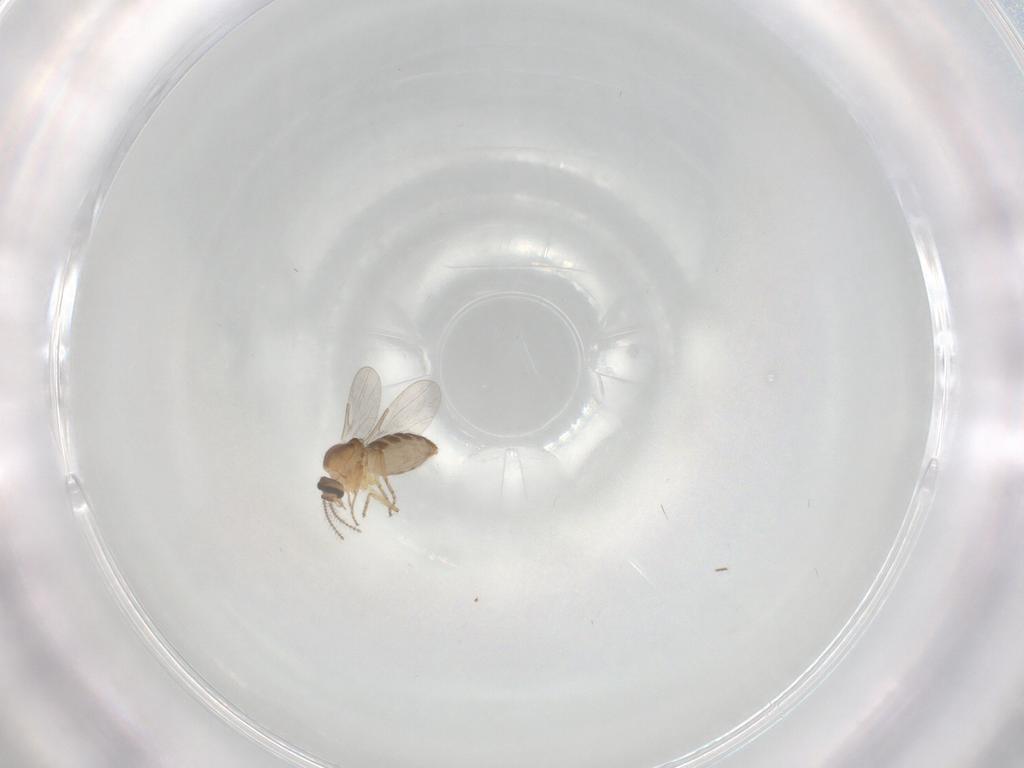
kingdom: Animalia
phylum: Arthropoda
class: Insecta
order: Diptera
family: Ceratopogonidae
